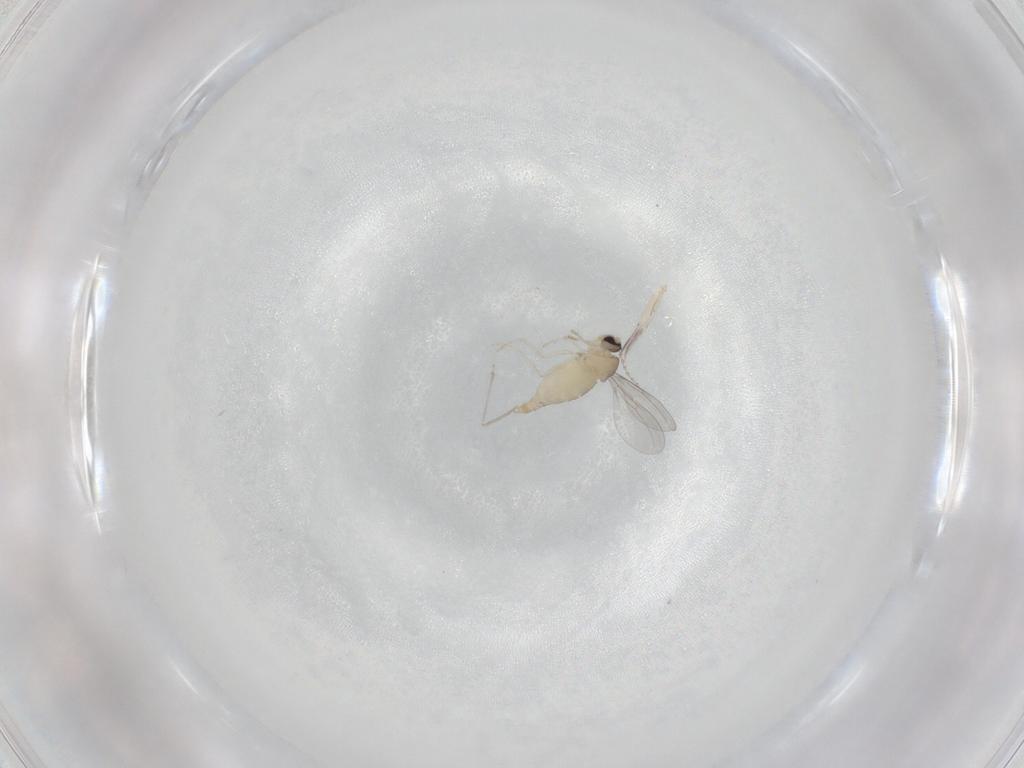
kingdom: Animalia
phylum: Arthropoda
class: Insecta
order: Diptera
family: Cecidomyiidae
